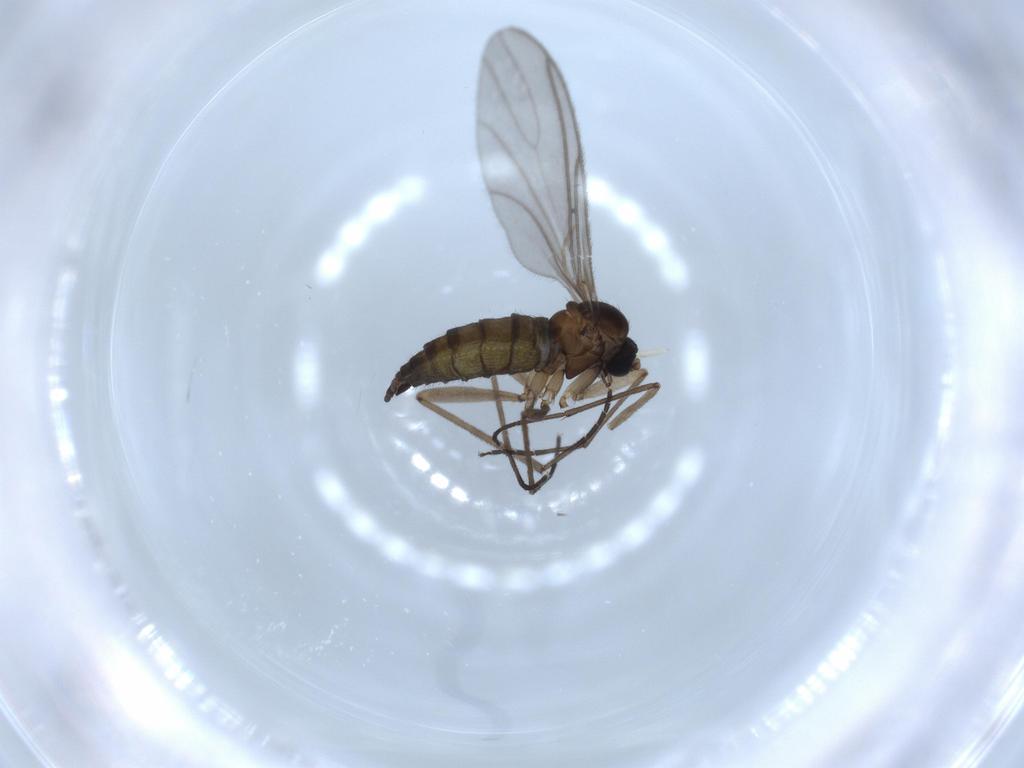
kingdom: Animalia
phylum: Arthropoda
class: Insecta
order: Diptera
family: Sciaridae
